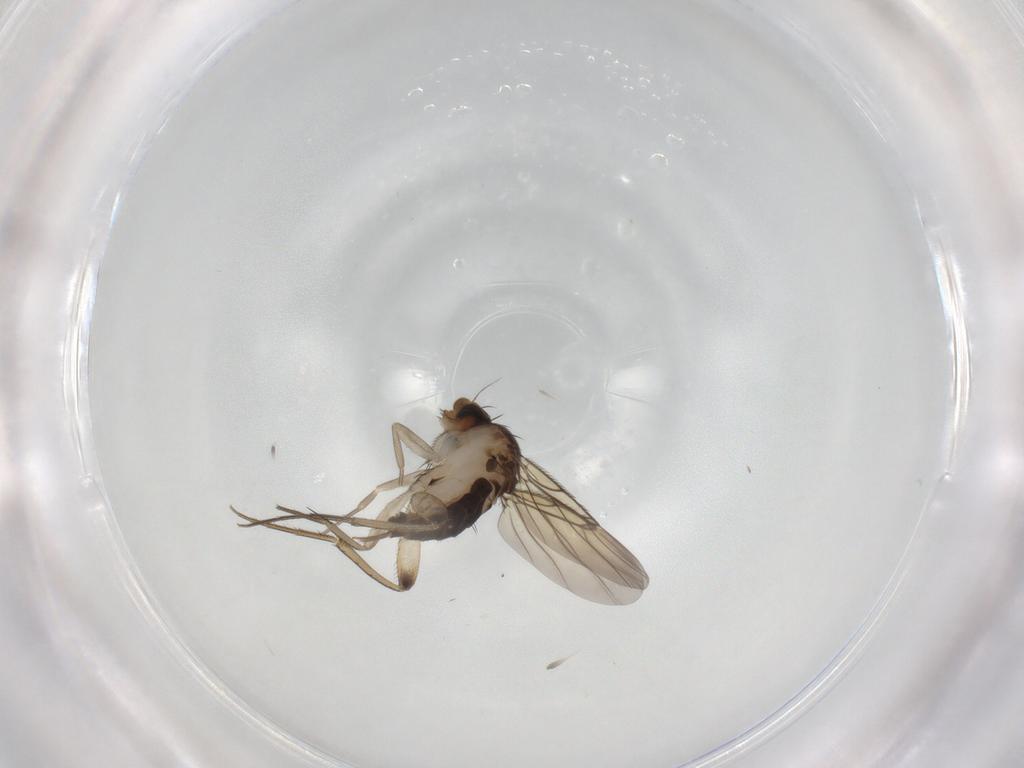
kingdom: Animalia
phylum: Arthropoda
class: Insecta
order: Diptera
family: Phoridae
